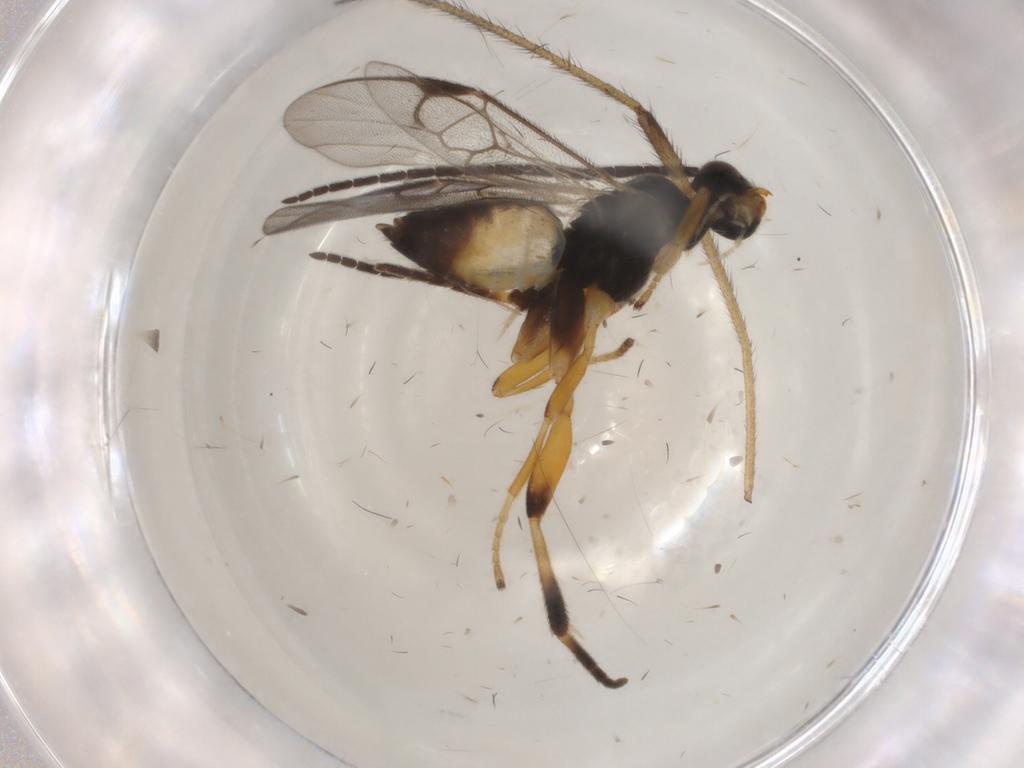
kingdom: Animalia
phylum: Arthropoda
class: Insecta
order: Hymenoptera
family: Braconidae
